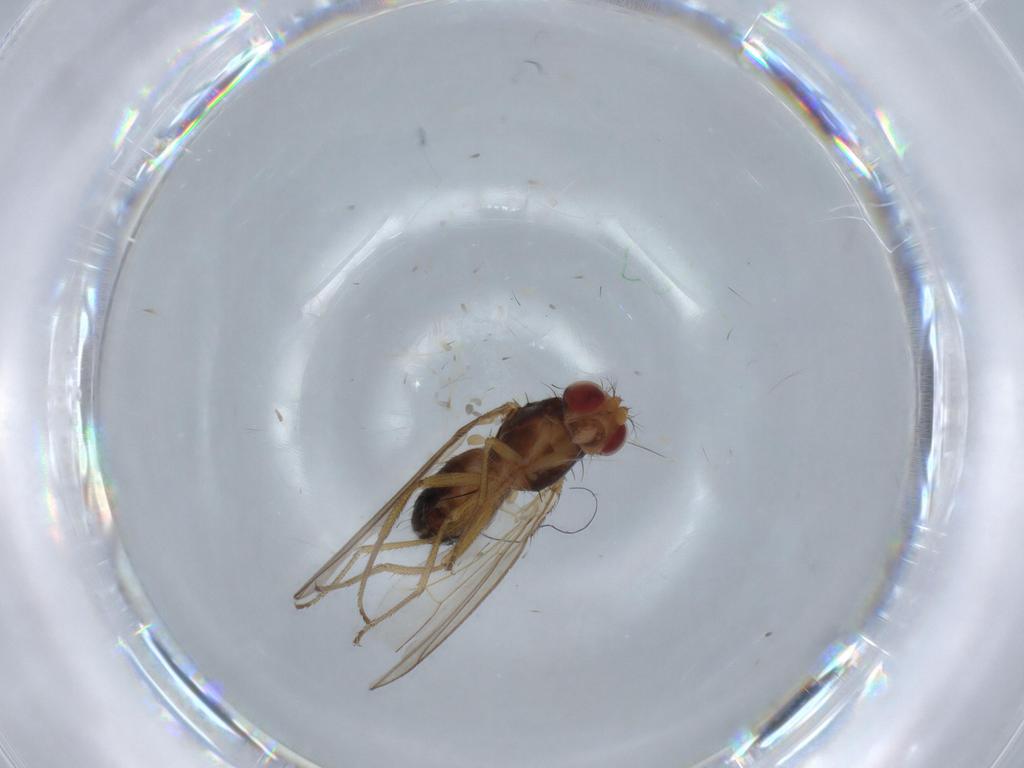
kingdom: Animalia
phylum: Arthropoda
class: Insecta
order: Diptera
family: Drosophilidae
